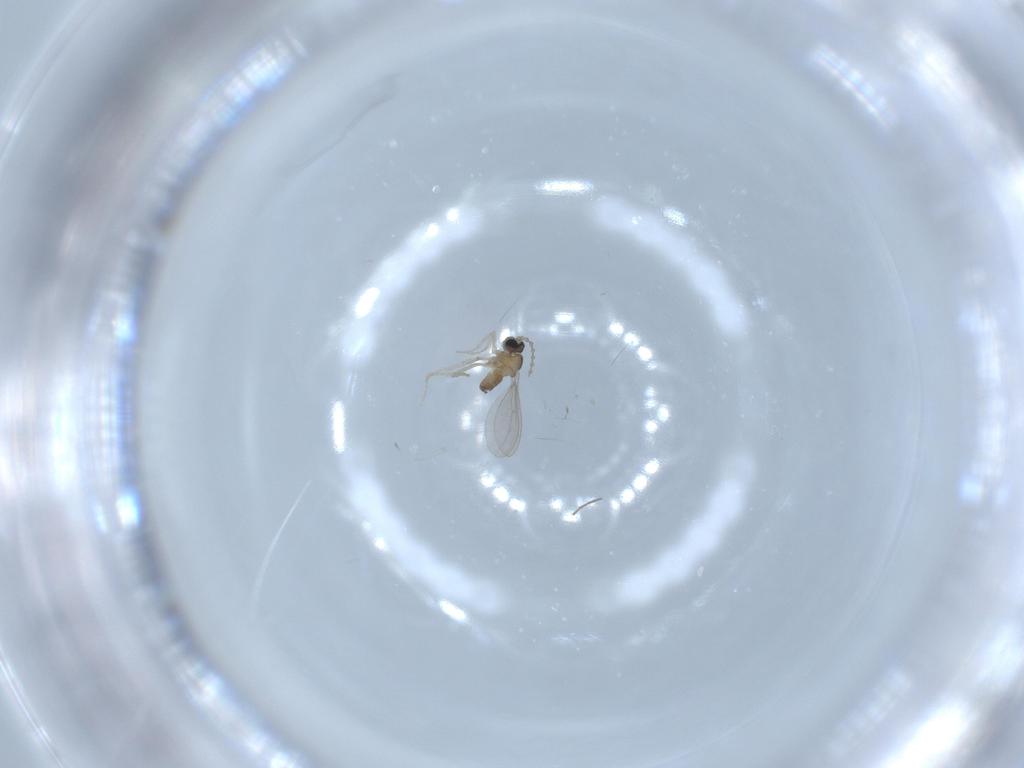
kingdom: Animalia
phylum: Arthropoda
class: Insecta
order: Diptera
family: Cecidomyiidae
